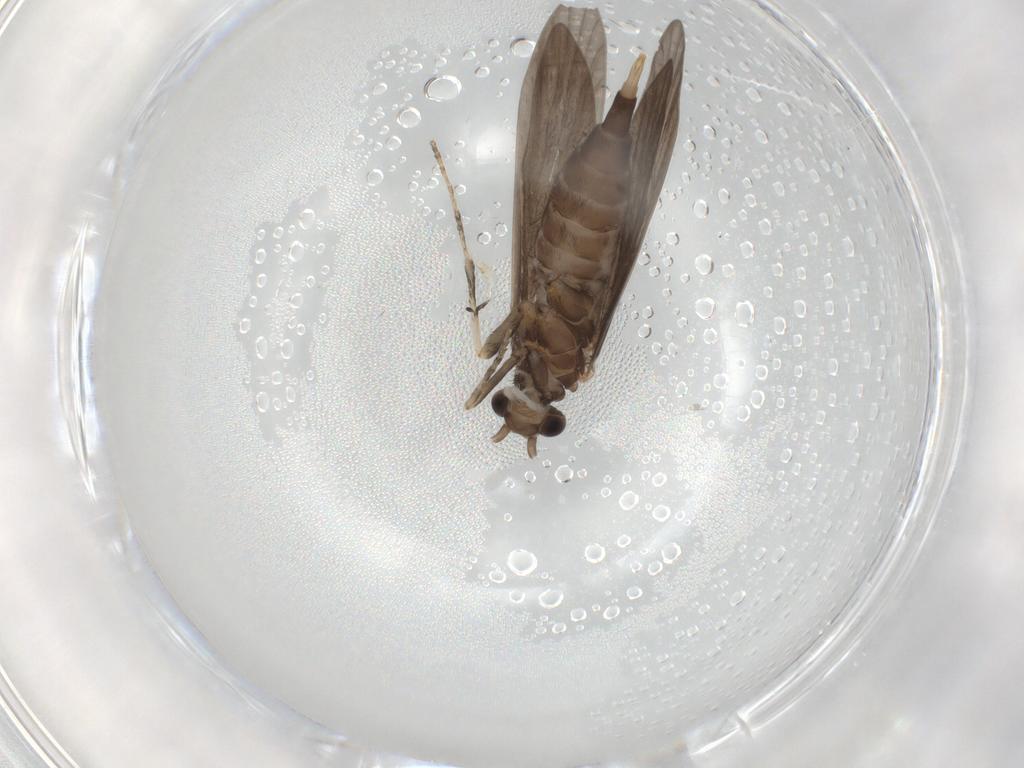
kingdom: Animalia
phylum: Arthropoda
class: Insecta
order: Trichoptera
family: Xiphocentronidae
